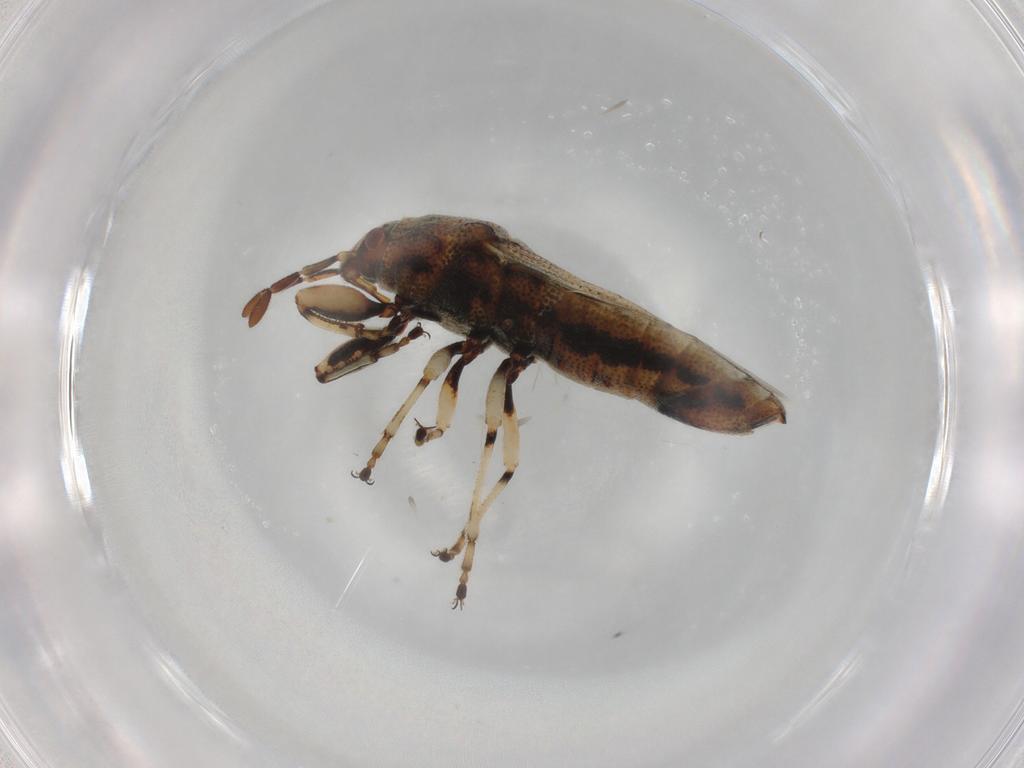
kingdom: Animalia
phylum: Arthropoda
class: Insecta
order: Hemiptera
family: Pachygronthidae
